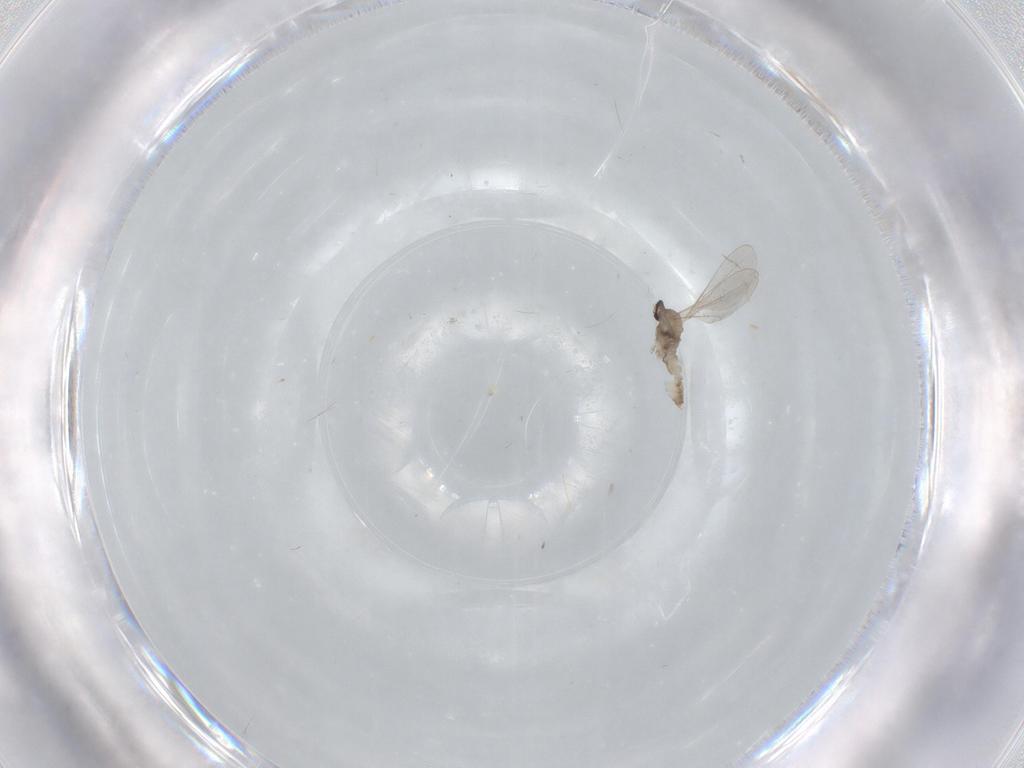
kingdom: Animalia
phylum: Arthropoda
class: Insecta
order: Diptera
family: Cecidomyiidae
